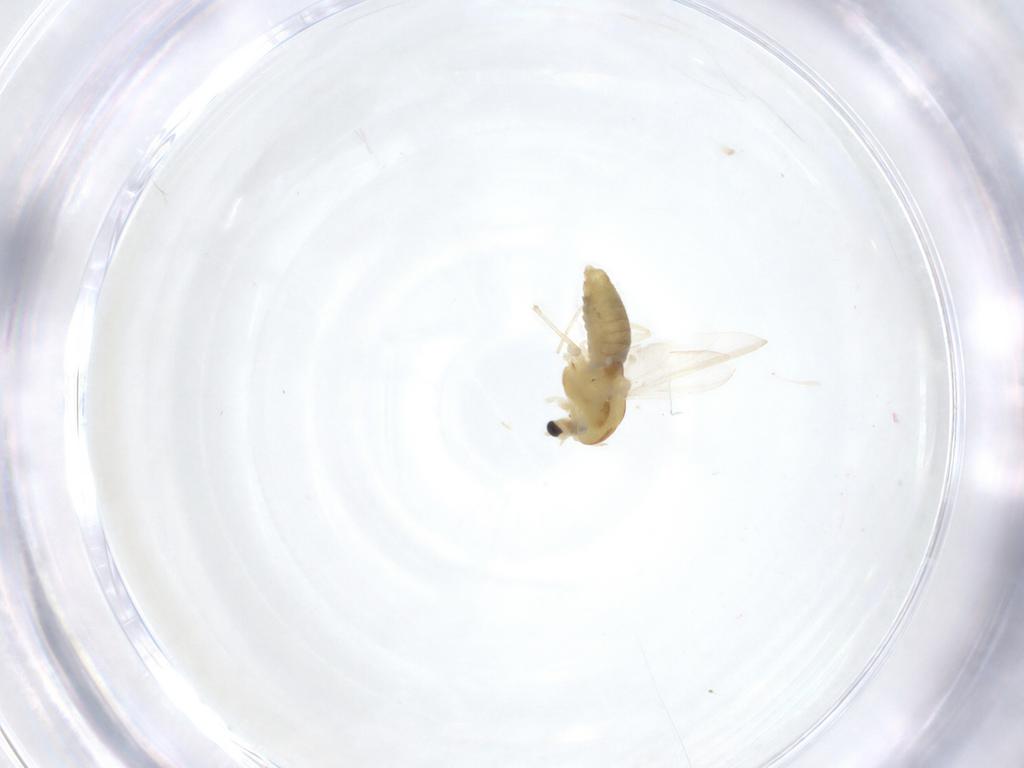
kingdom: Animalia
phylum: Arthropoda
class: Insecta
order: Diptera
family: Chironomidae
